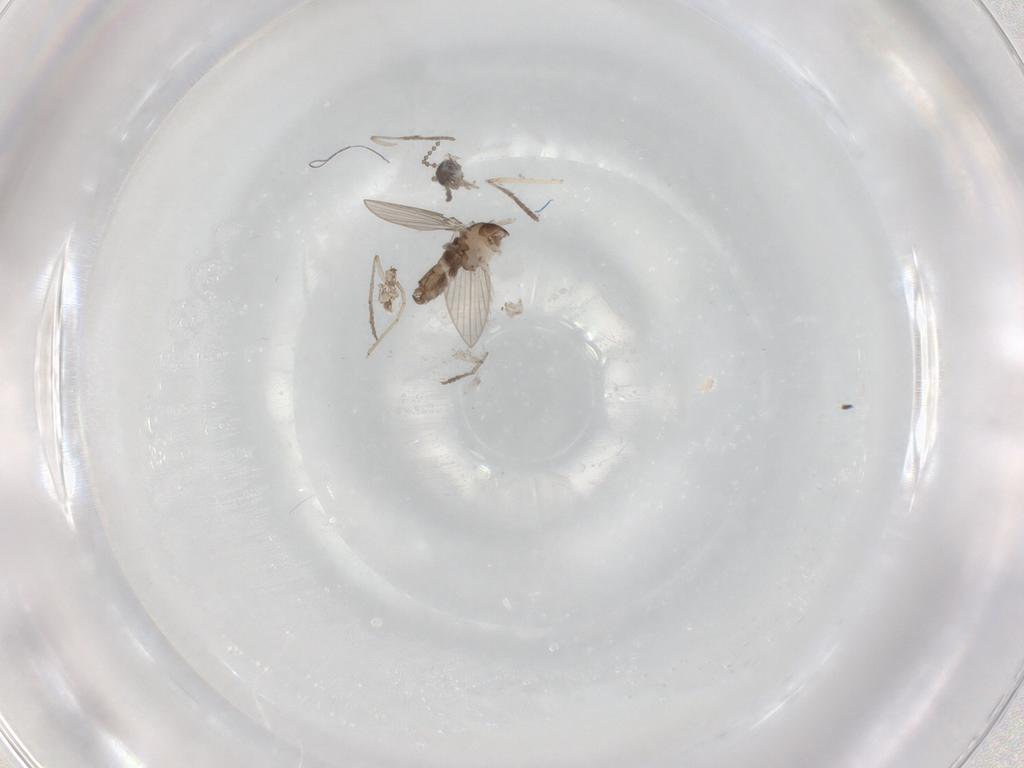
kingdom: Animalia
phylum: Arthropoda
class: Insecta
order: Diptera
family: Psychodidae
